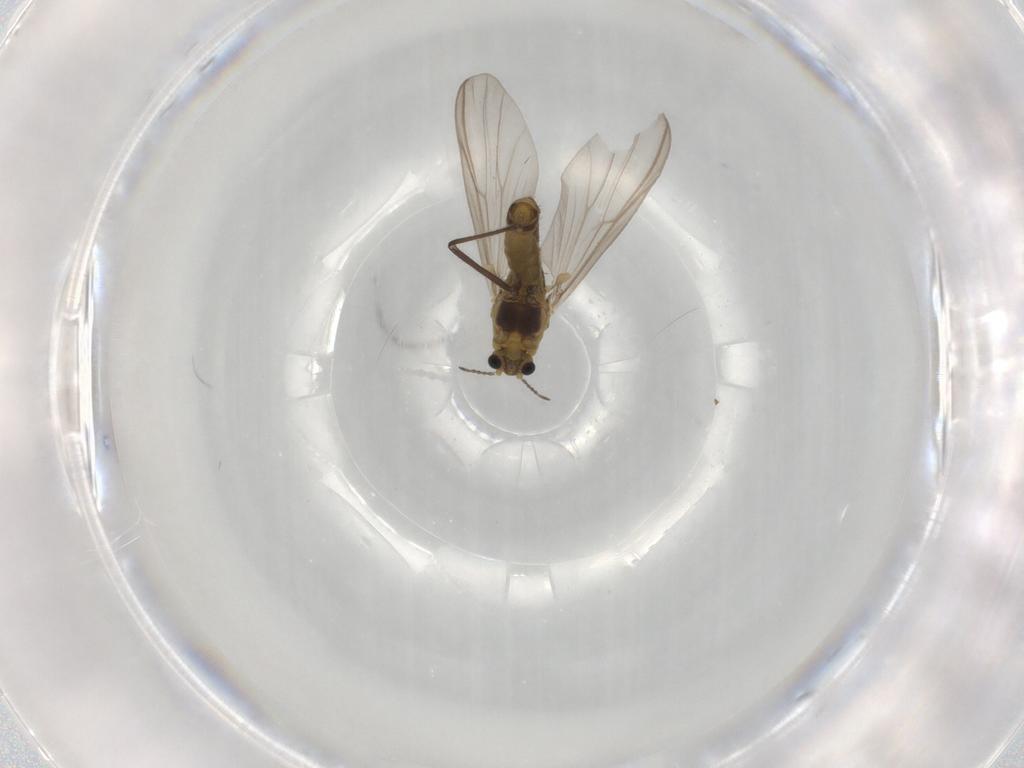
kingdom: Animalia
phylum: Arthropoda
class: Insecta
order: Diptera
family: Chironomidae
